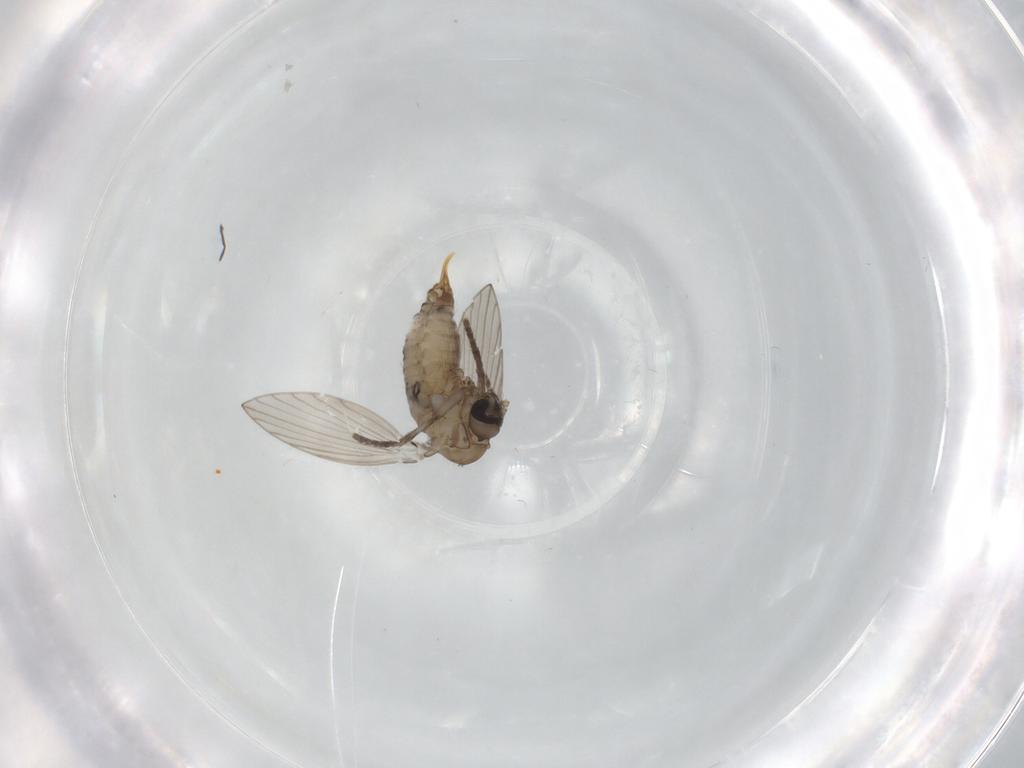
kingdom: Animalia
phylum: Arthropoda
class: Insecta
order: Diptera
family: Psychodidae
